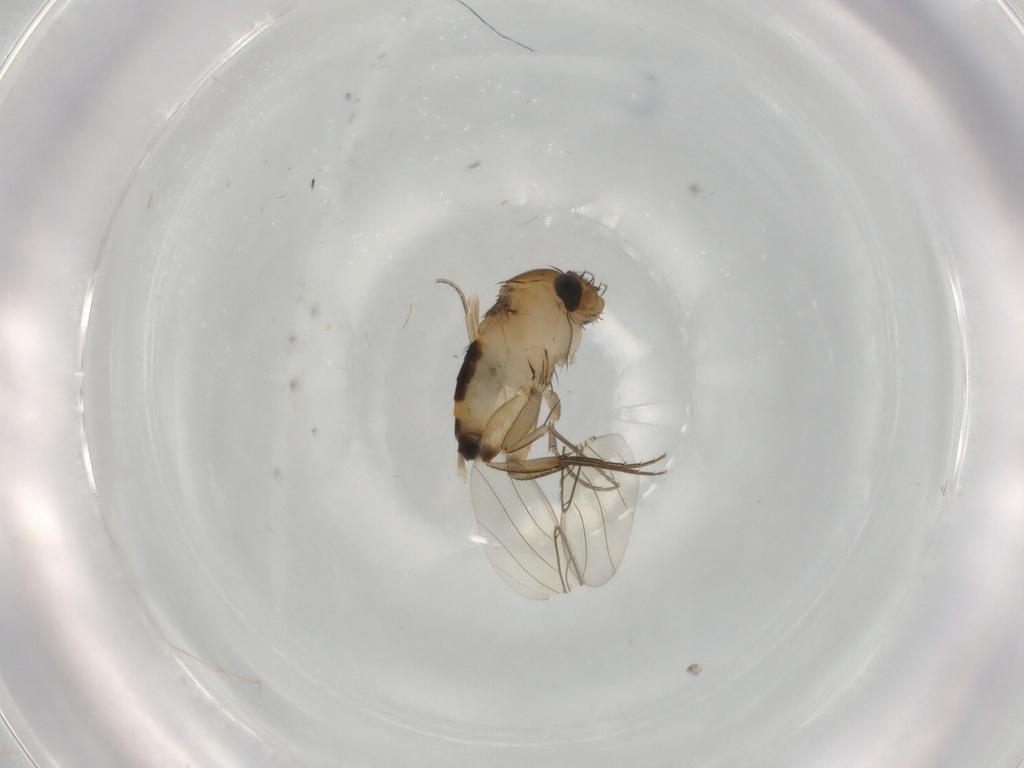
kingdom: Animalia
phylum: Arthropoda
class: Insecta
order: Diptera
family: Phoridae
